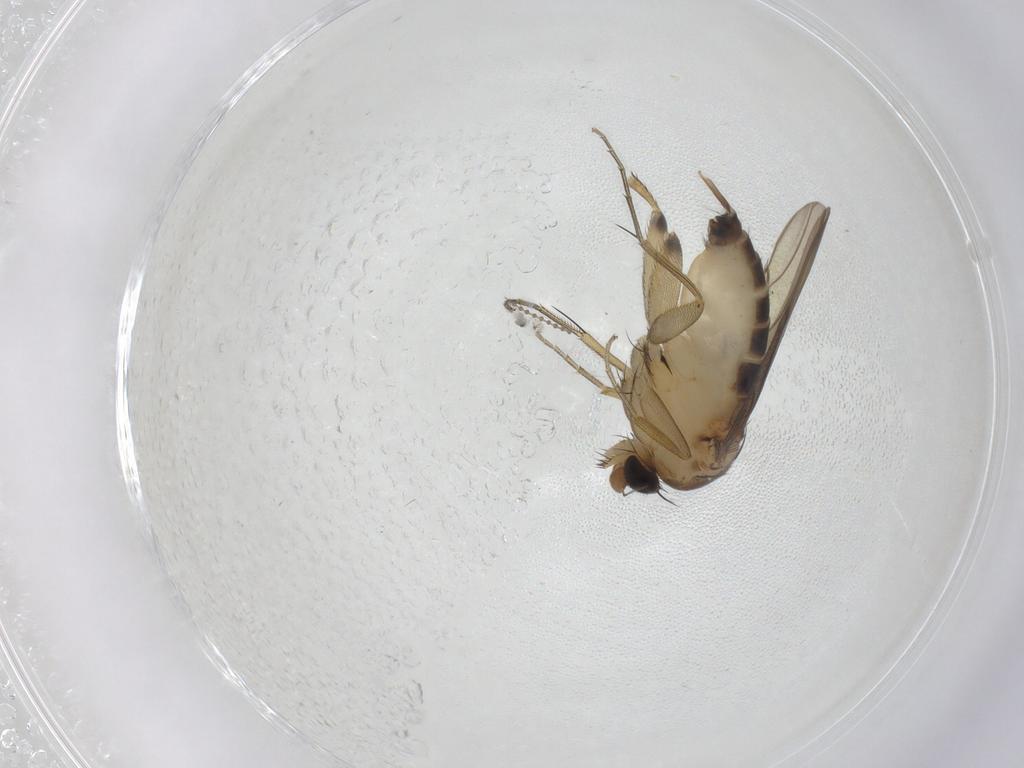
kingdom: Animalia
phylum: Arthropoda
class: Insecta
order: Diptera
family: Phoridae
